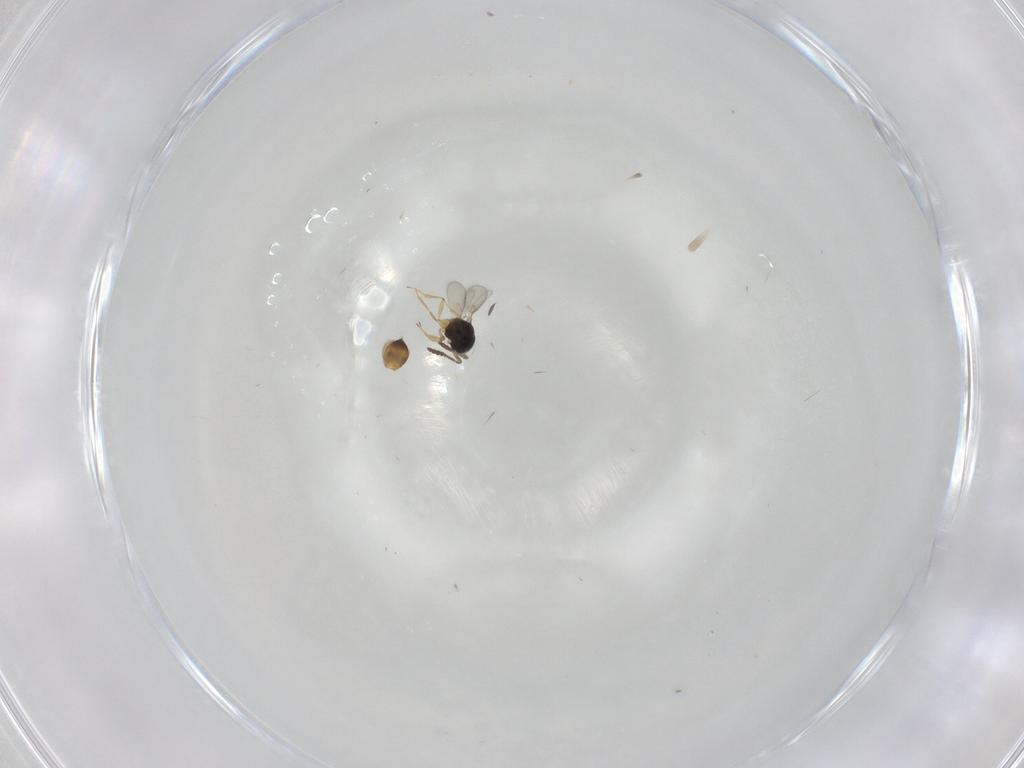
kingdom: Animalia
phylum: Arthropoda
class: Insecta
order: Hymenoptera
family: Scelionidae
